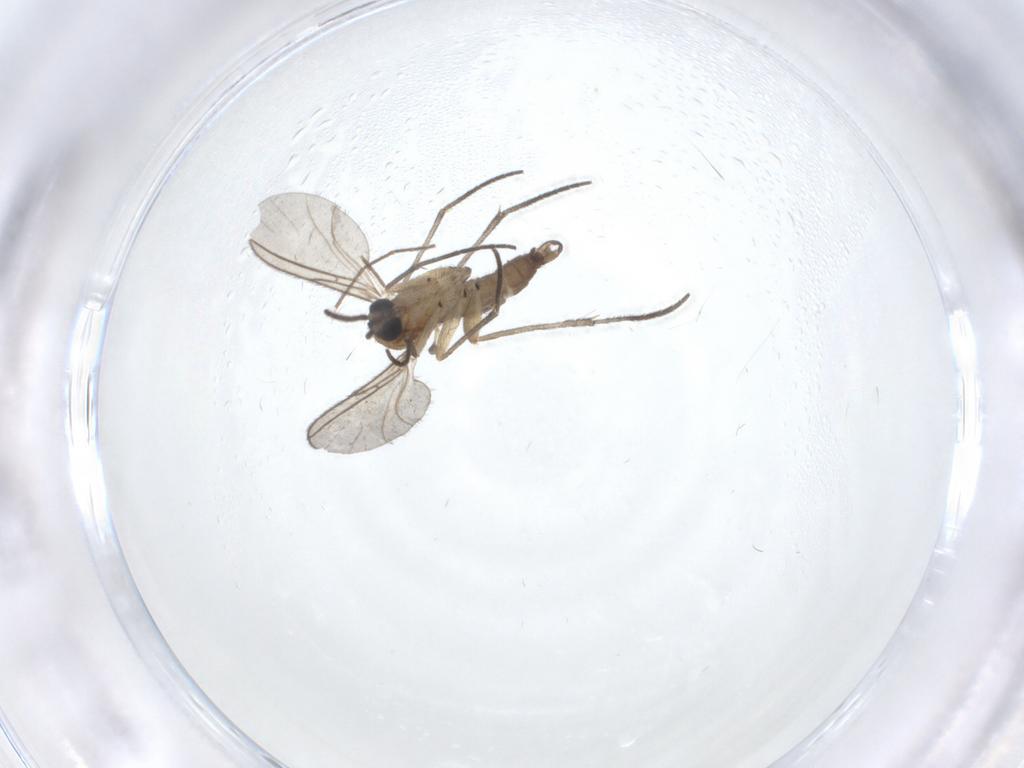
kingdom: Animalia
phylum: Arthropoda
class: Insecta
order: Diptera
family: Sciaridae
